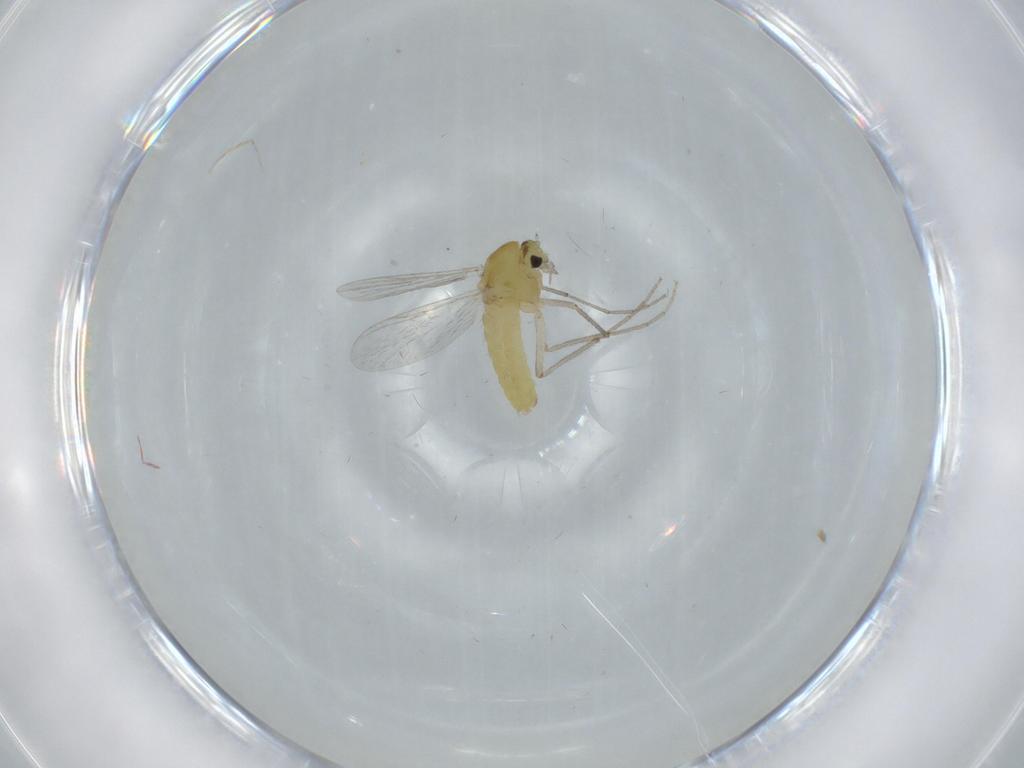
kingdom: Animalia
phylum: Arthropoda
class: Insecta
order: Diptera
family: Chironomidae
